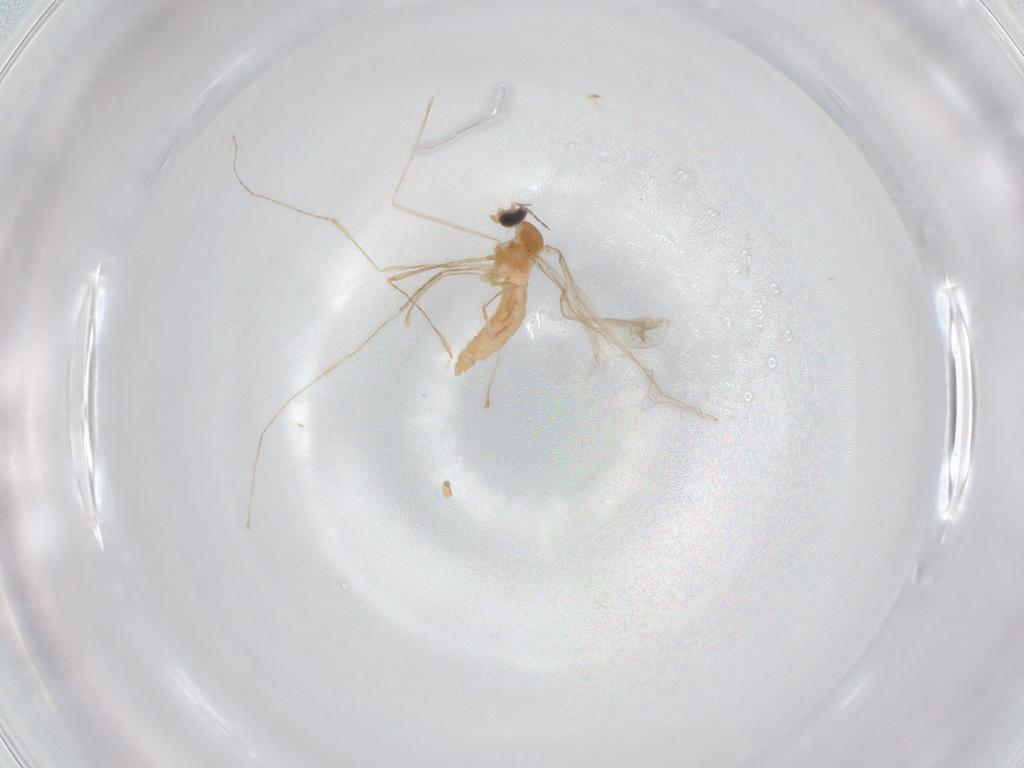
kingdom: Animalia
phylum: Arthropoda
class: Insecta
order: Diptera
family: Cecidomyiidae
